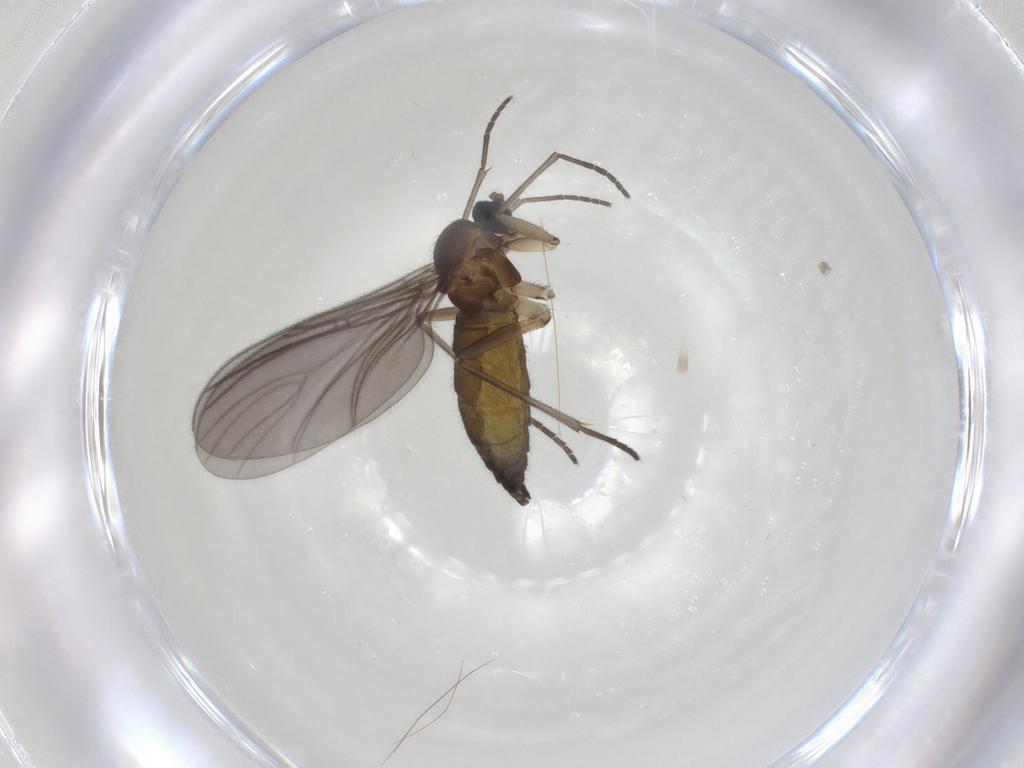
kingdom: Animalia
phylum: Arthropoda
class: Insecta
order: Diptera
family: Sciaridae
